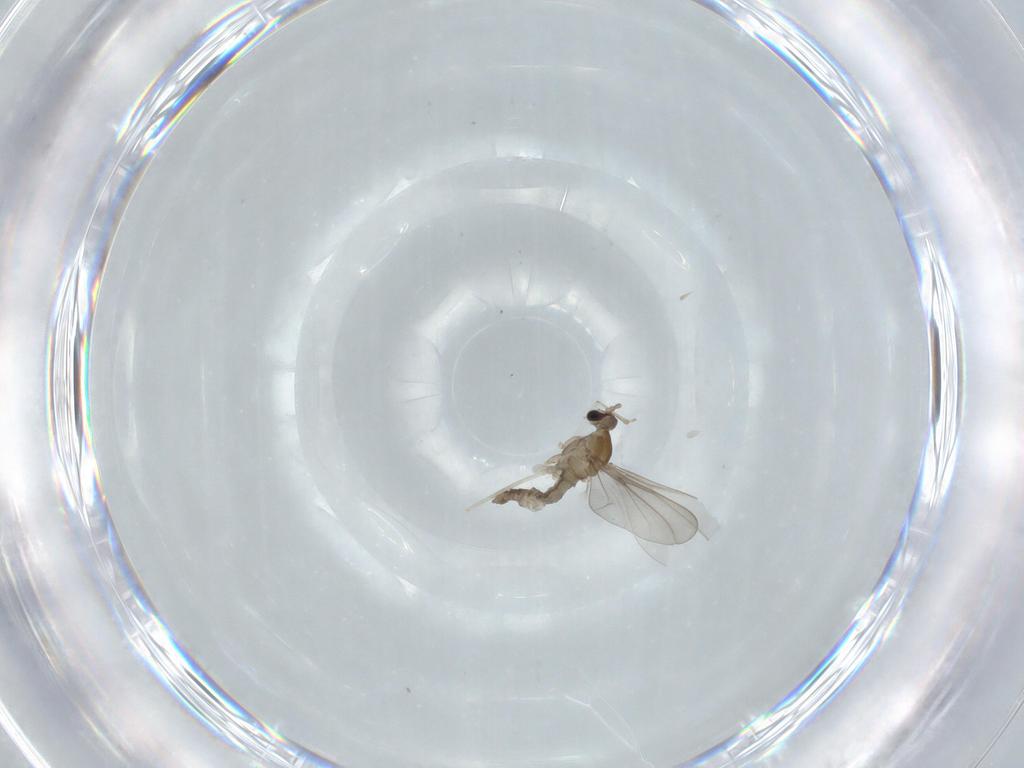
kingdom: Animalia
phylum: Arthropoda
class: Insecta
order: Diptera
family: Cecidomyiidae
